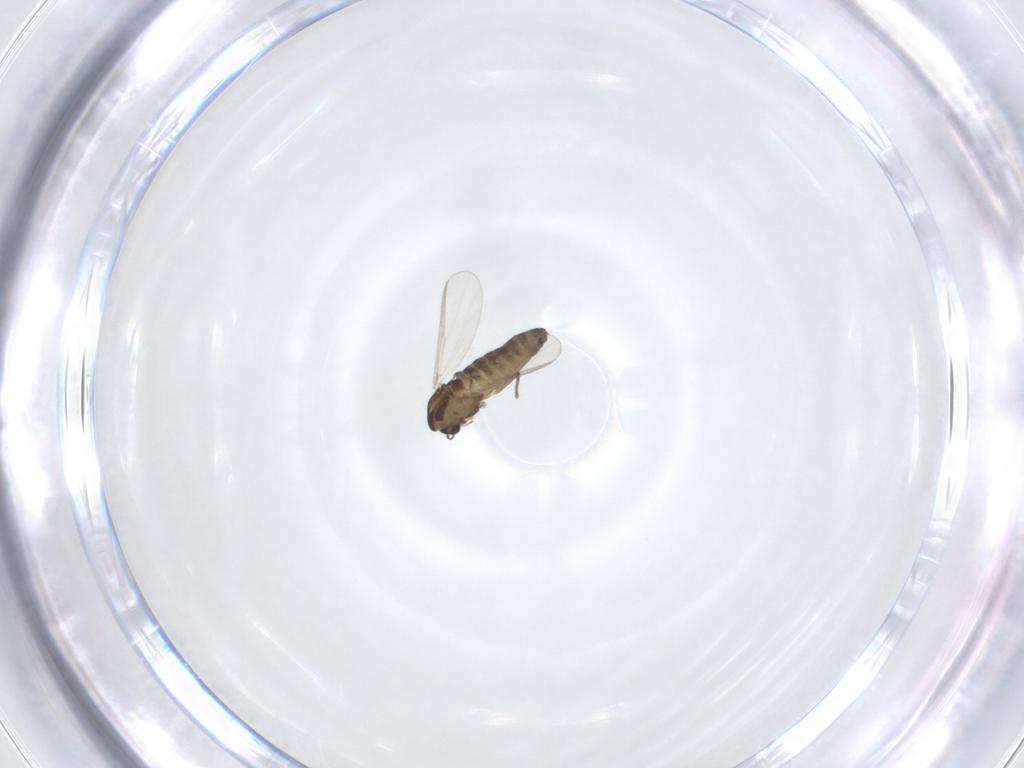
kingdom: Animalia
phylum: Arthropoda
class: Insecta
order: Diptera
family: Chironomidae
